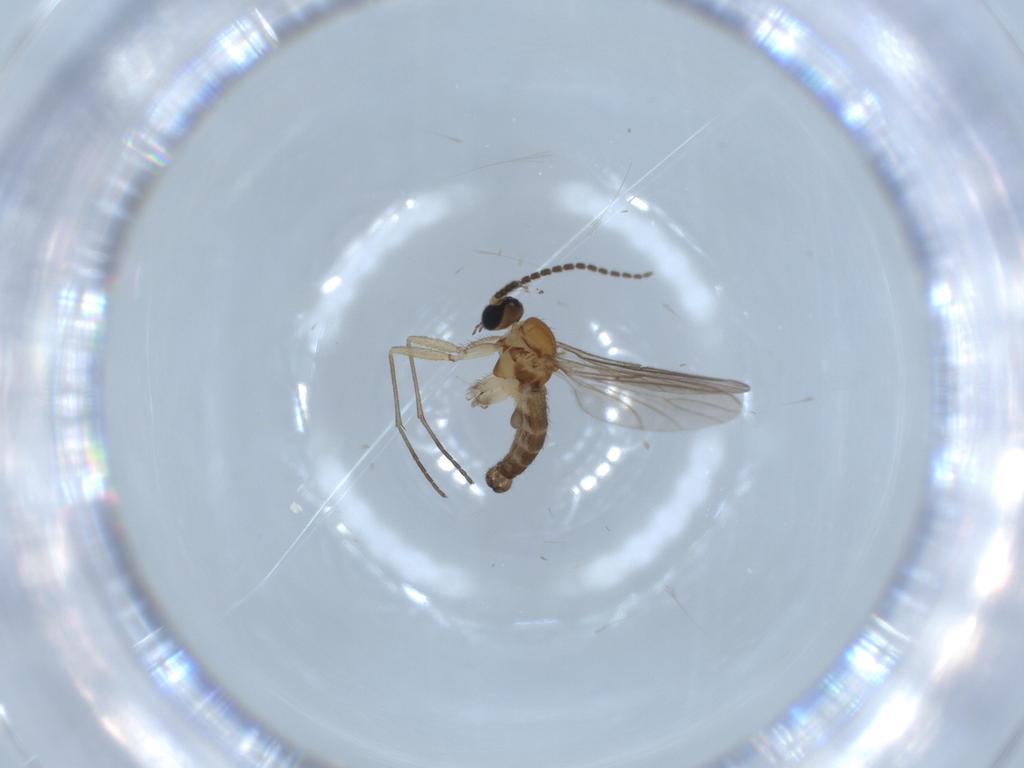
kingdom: Animalia
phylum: Arthropoda
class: Insecta
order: Diptera
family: Sciaridae
